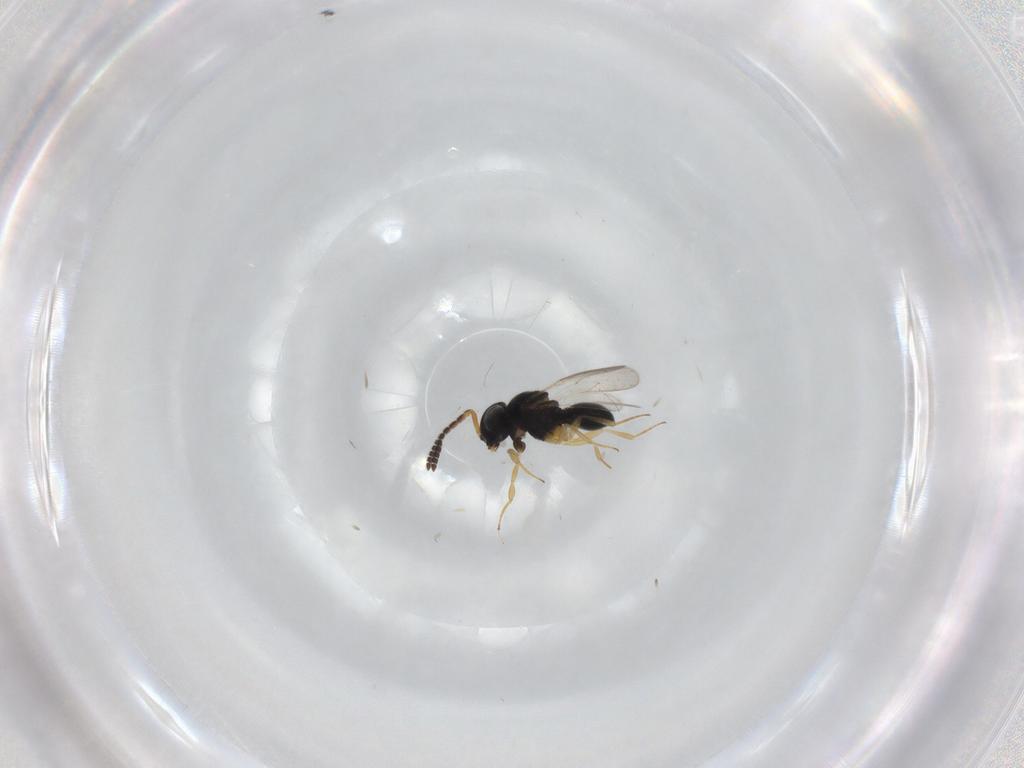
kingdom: Animalia
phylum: Arthropoda
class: Insecta
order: Hymenoptera
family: Scelionidae
